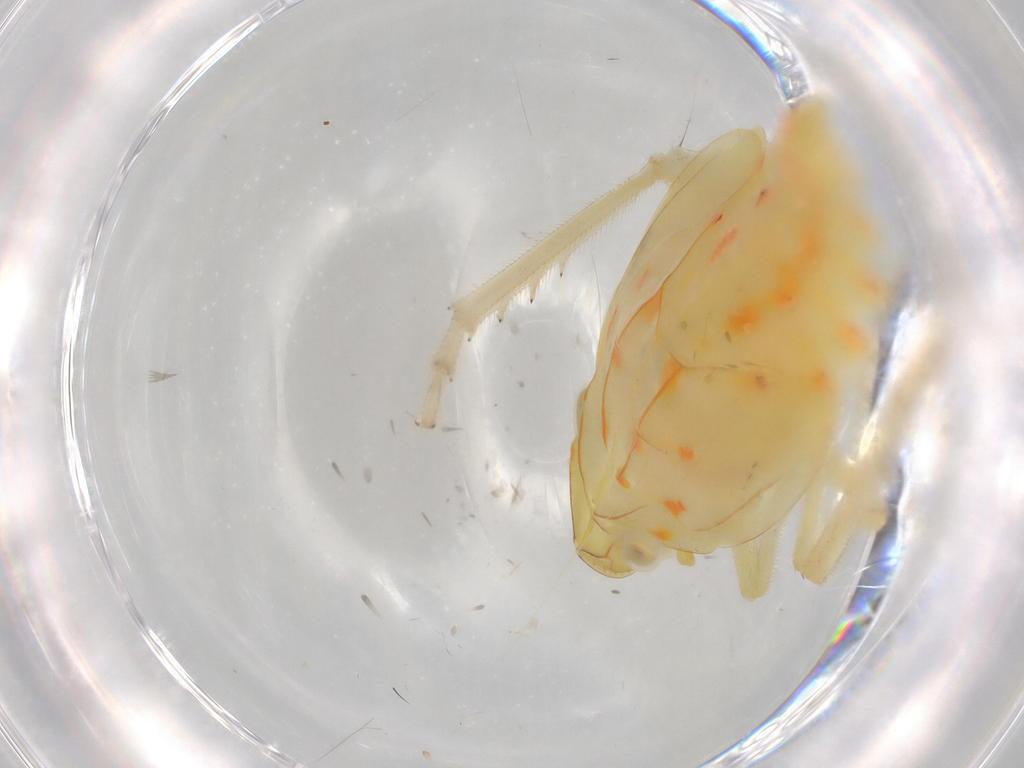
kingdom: Animalia
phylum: Arthropoda
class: Insecta
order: Hemiptera
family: Tropiduchidae
